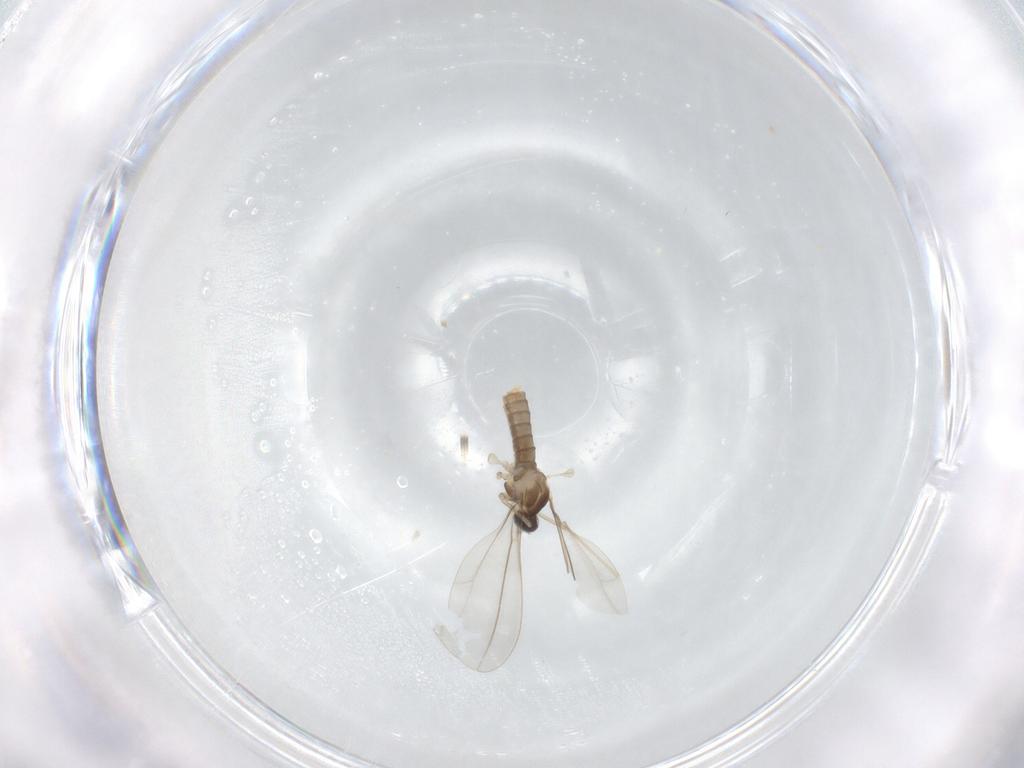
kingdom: Animalia
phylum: Arthropoda
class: Insecta
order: Diptera
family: Cecidomyiidae
